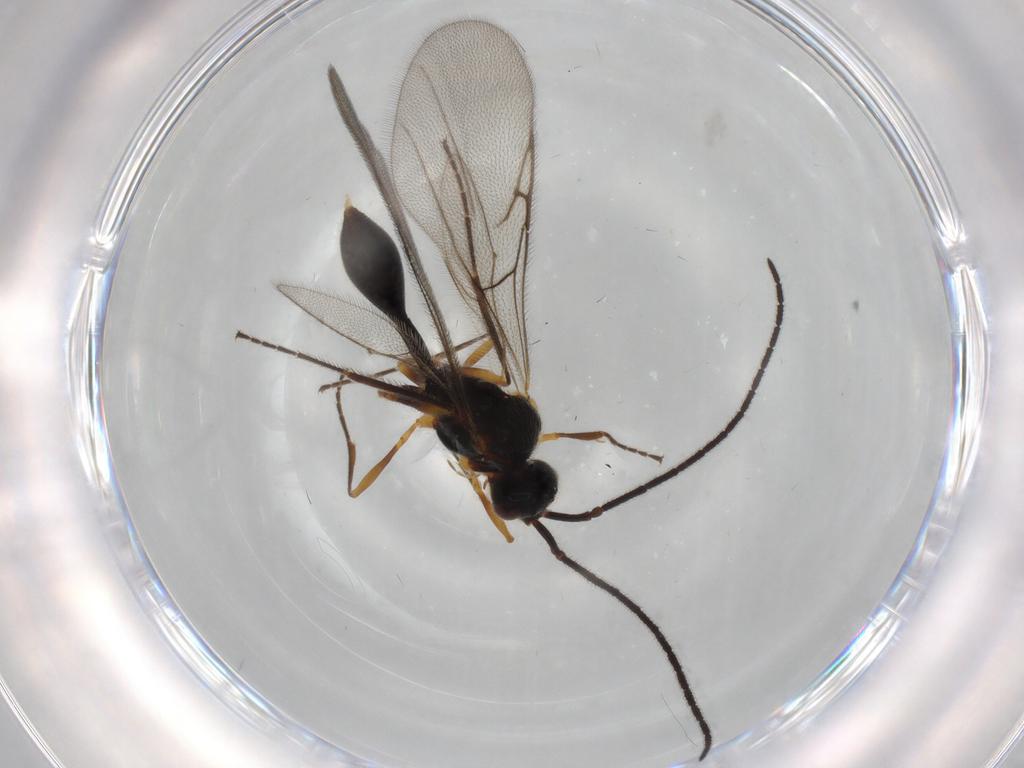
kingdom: Animalia
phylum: Arthropoda
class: Insecta
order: Hymenoptera
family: Diapriidae
